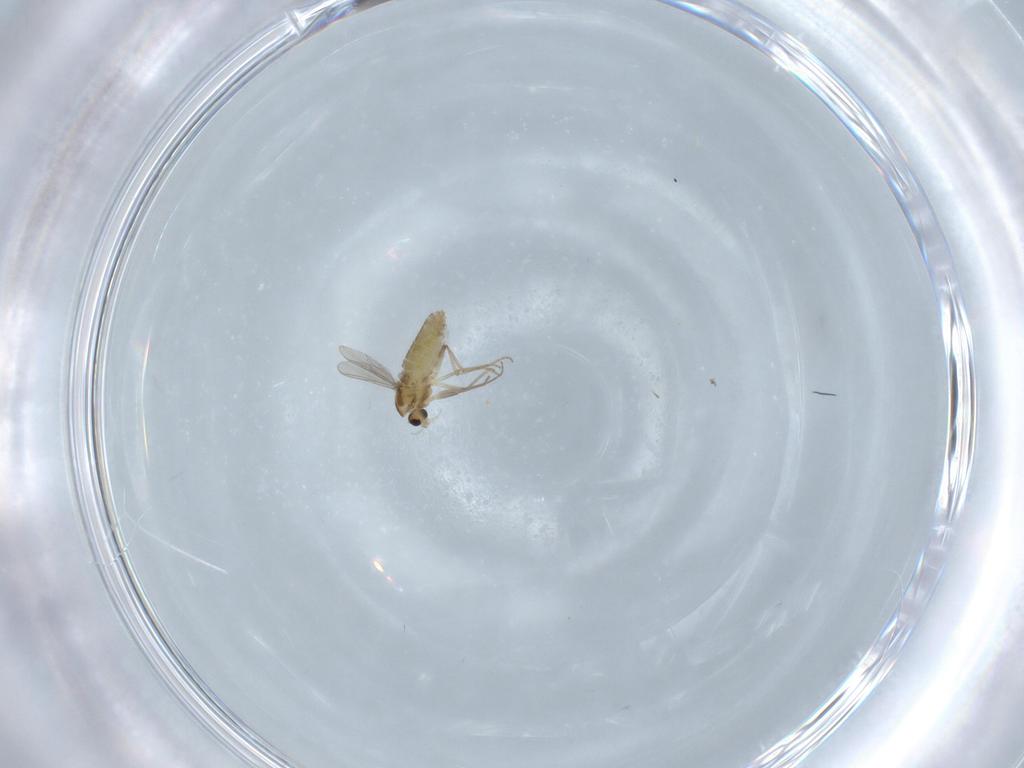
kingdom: Animalia
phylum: Arthropoda
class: Insecta
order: Diptera
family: Chironomidae
